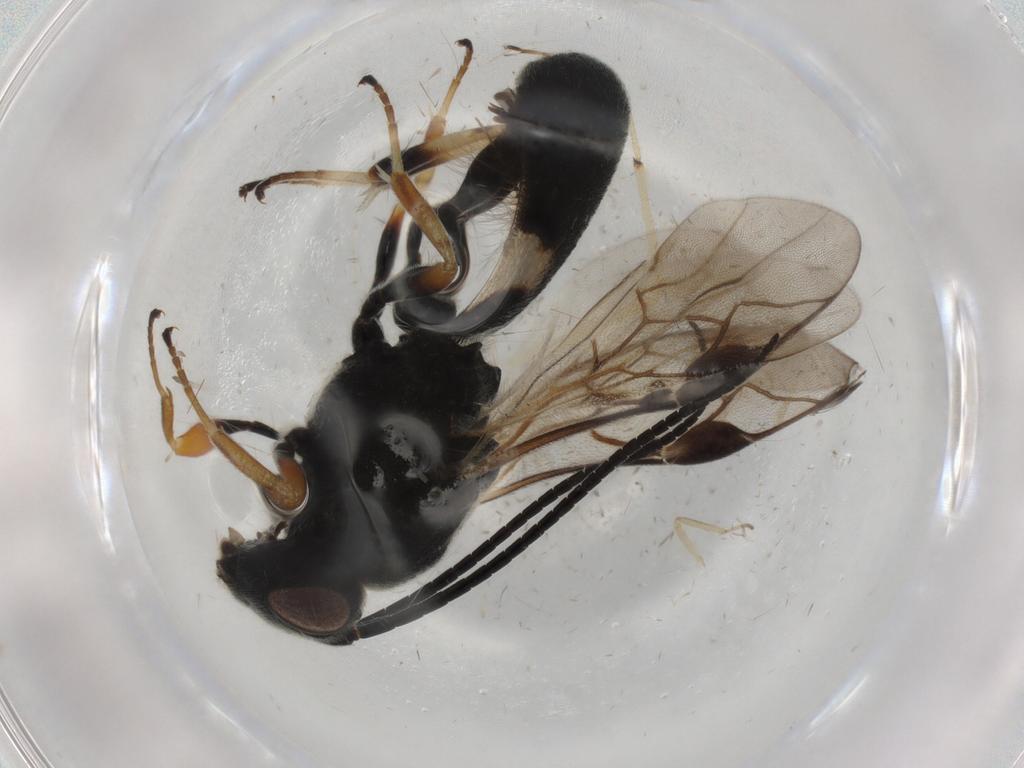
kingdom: Animalia
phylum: Arthropoda
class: Insecta
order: Hymenoptera
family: Braconidae
